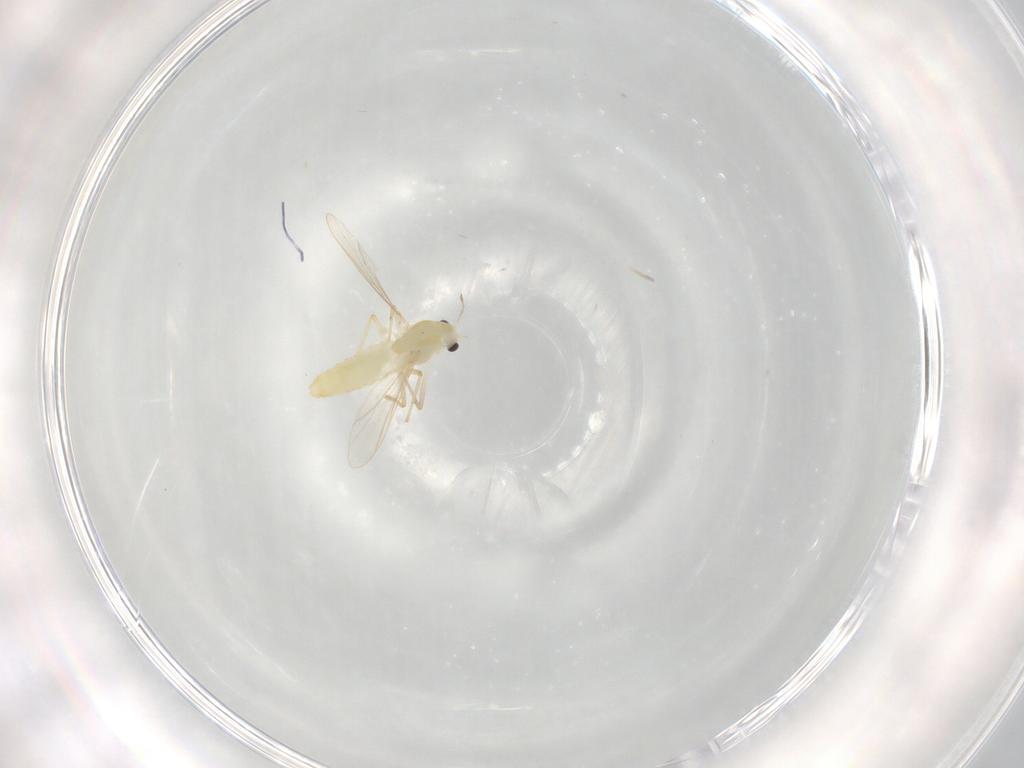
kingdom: Animalia
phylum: Arthropoda
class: Insecta
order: Diptera
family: Chironomidae
